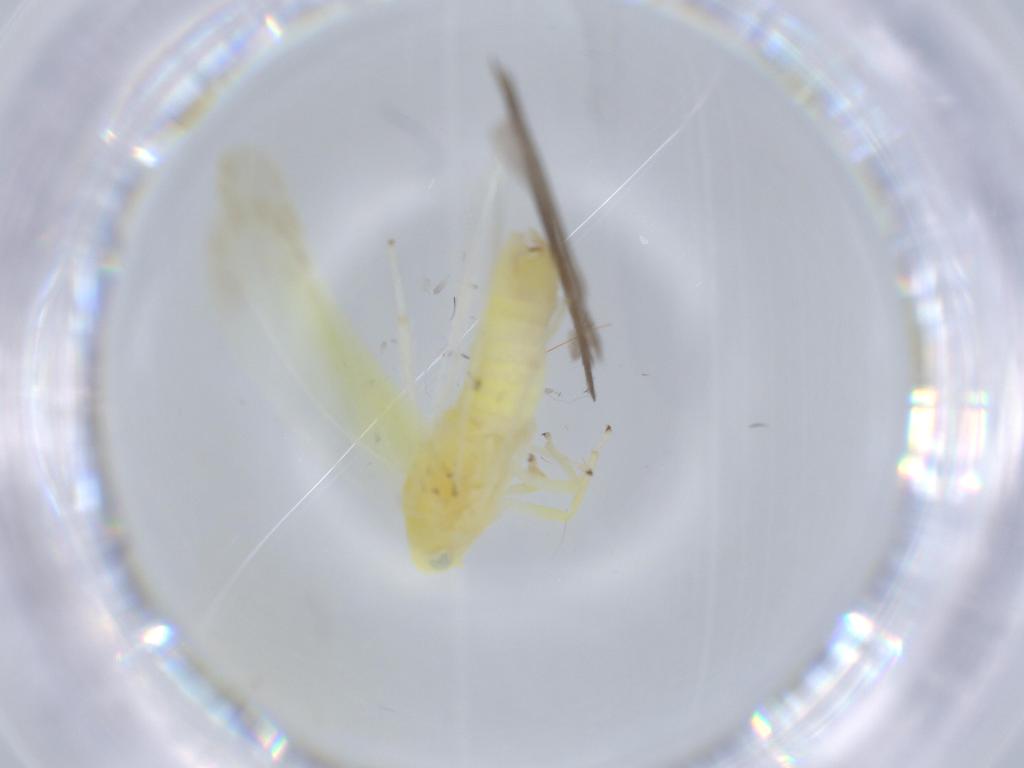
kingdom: Animalia
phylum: Arthropoda
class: Insecta
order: Hemiptera
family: Cicadellidae
